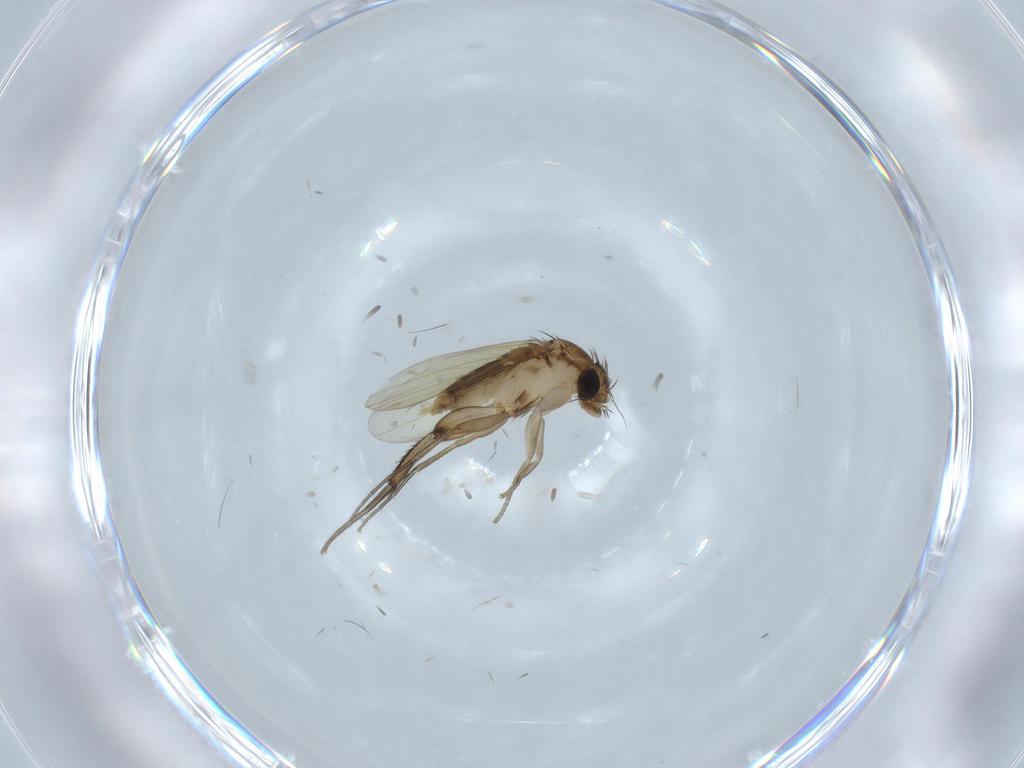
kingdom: Animalia
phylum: Arthropoda
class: Insecta
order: Diptera
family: Phoridae
